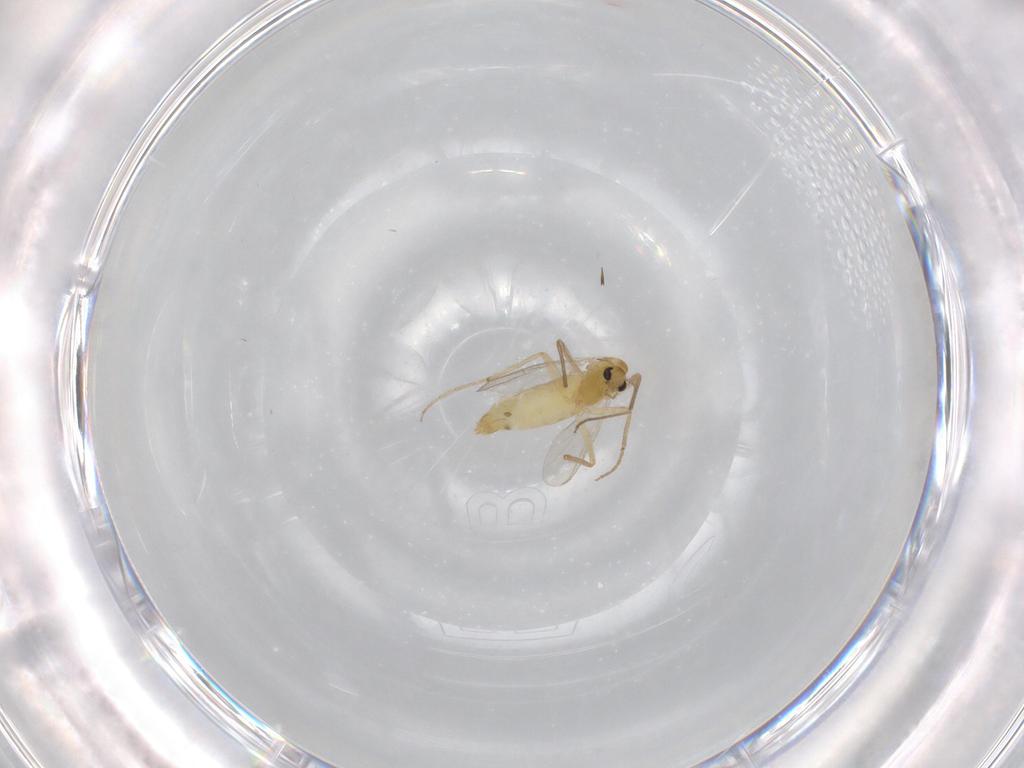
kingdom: Animalia
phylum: Arthropoda
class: Insecta
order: Diptera
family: Chironomidae
